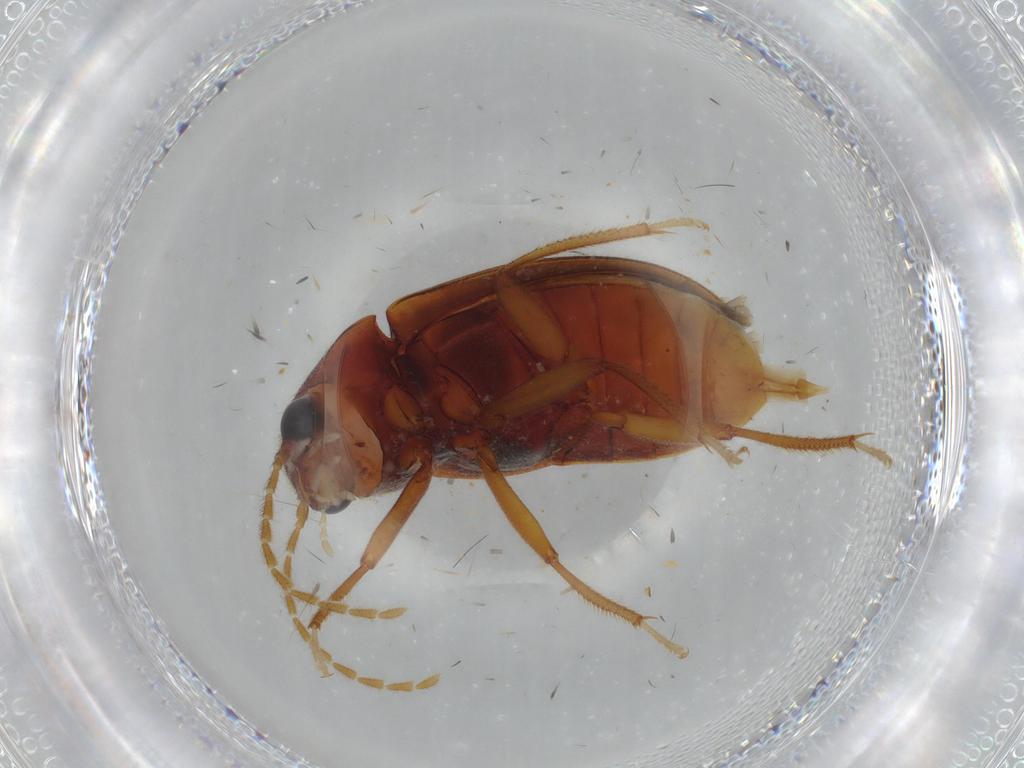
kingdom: Animalia
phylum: Arthropoda
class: Insecta
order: Coleoptera
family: Ptilodactylidae
